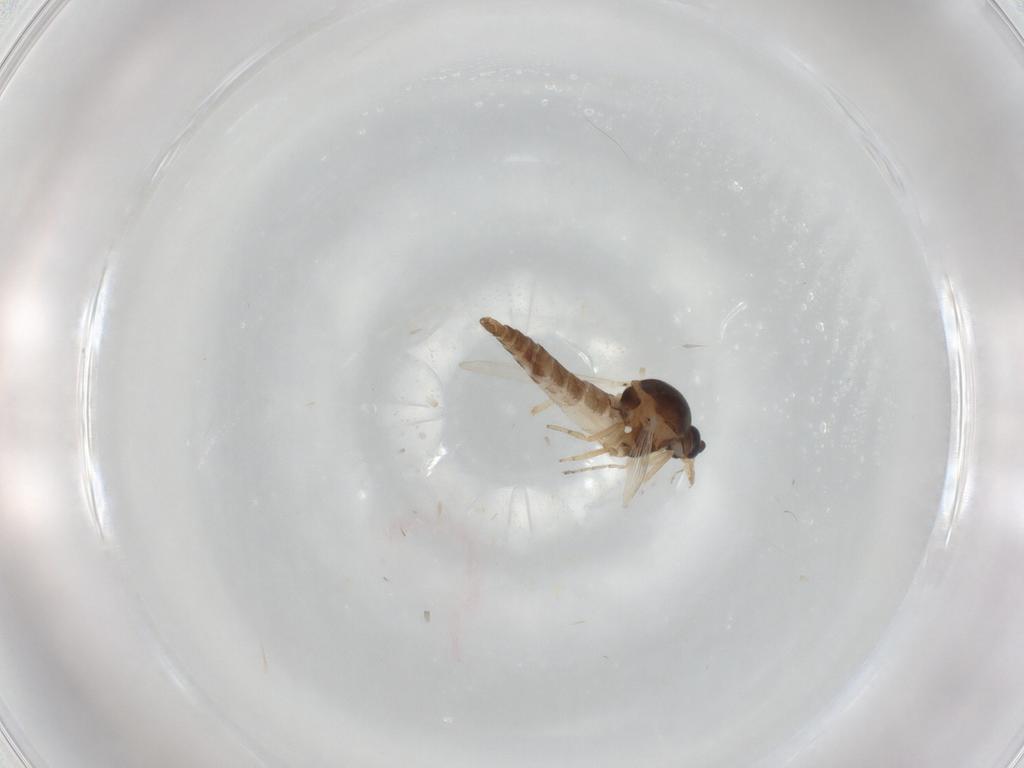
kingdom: Animalia
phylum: Arthropoda
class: Insecta
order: Diptera
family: Ceratopogonidae
